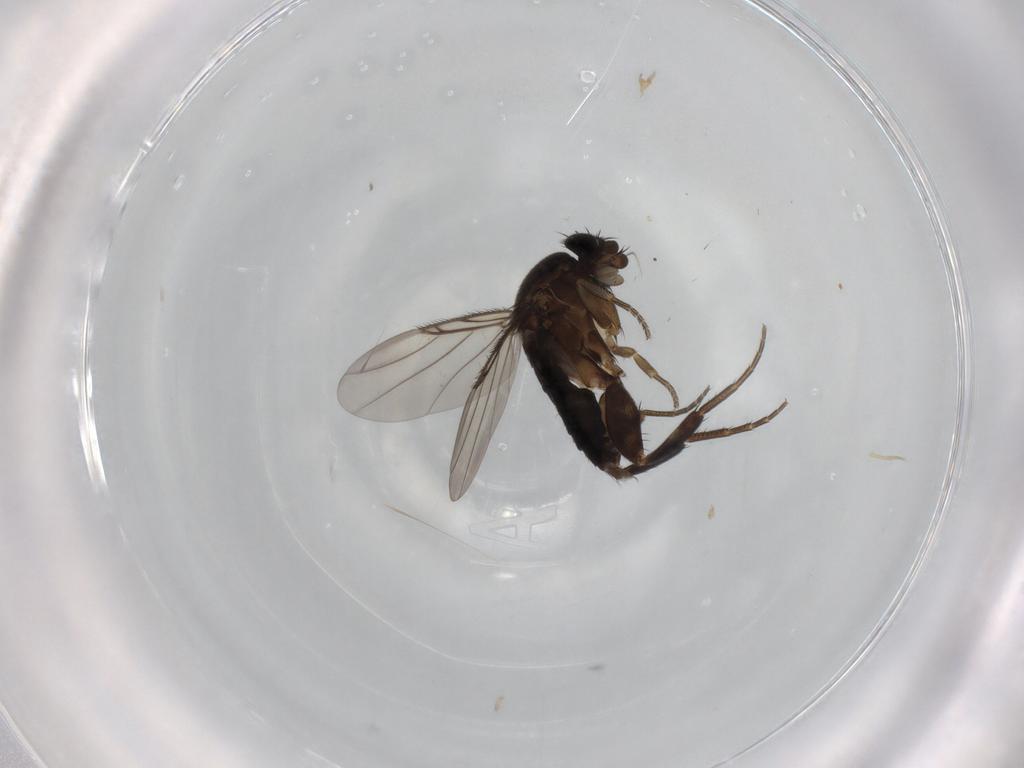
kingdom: Animalia
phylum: Arthropoda
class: Insecta
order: Diptera
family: Phoridae
